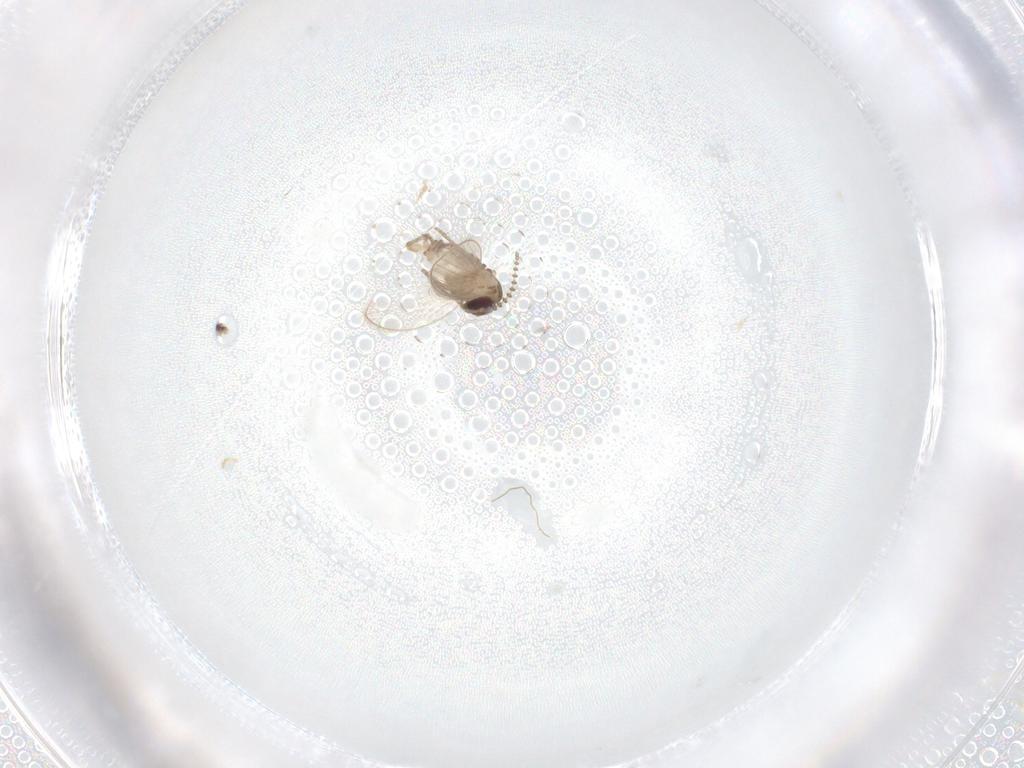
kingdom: Animalia
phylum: Arthropoda
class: Insecta
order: Diptera
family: Psychodidae
